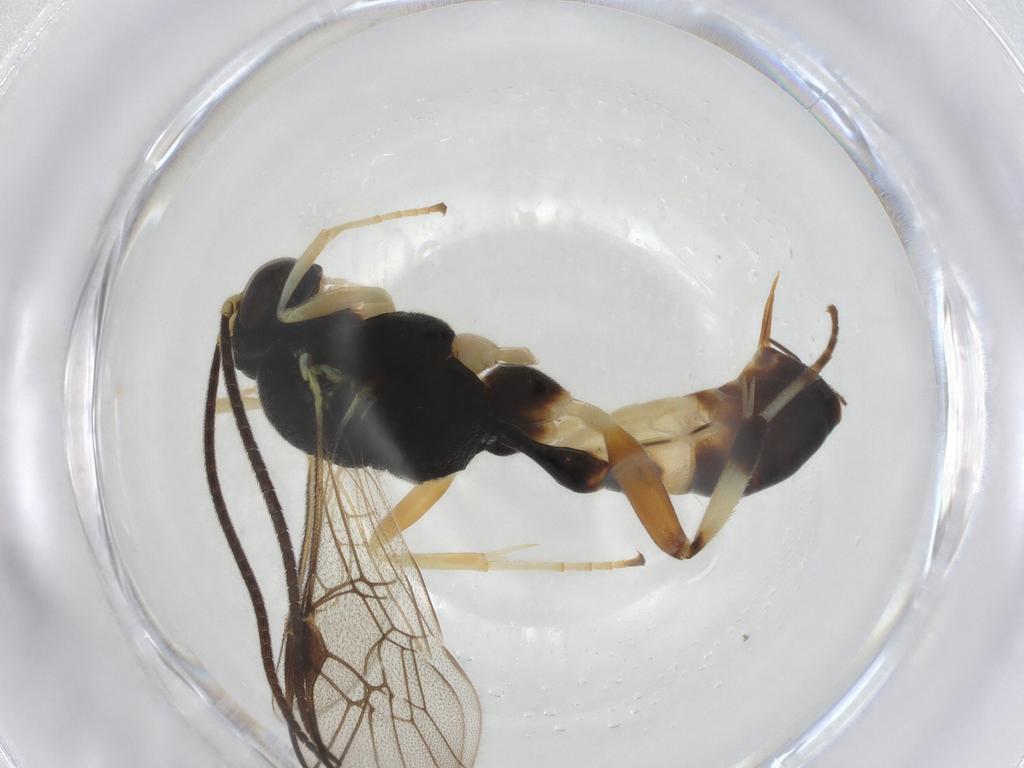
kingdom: Animalia
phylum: Arthropoda
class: Insecta
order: Hymenoptera
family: Ichneumonidae
